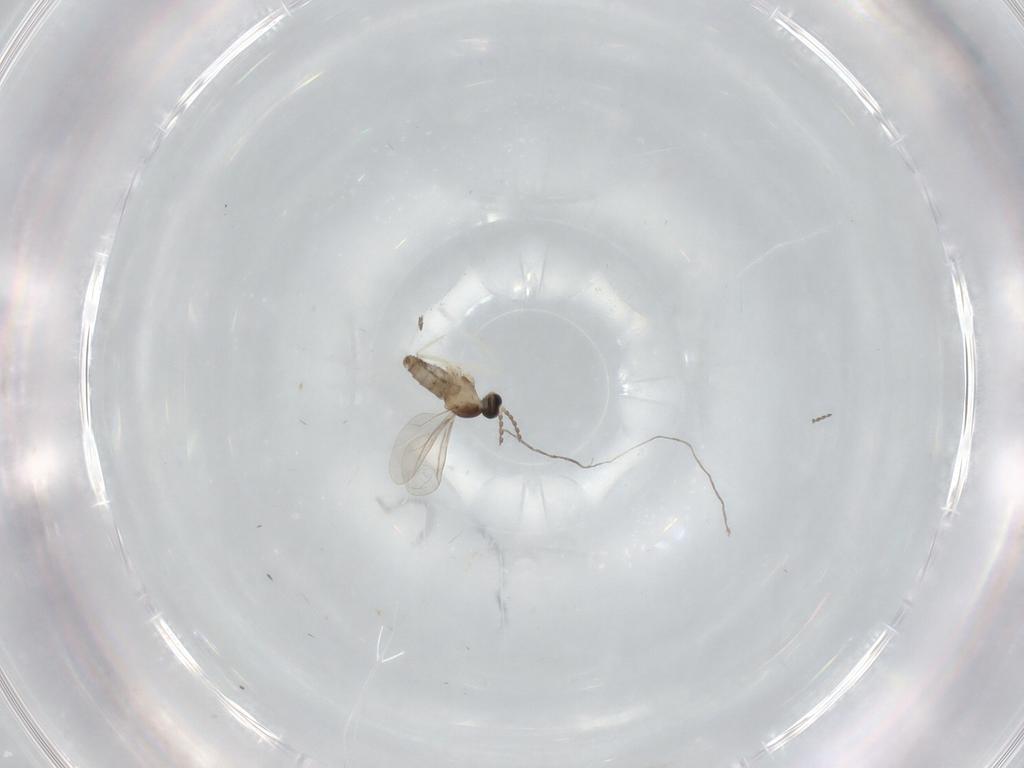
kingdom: Animalia
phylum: Arthropoda
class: Insecta
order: Diptera
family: Cecidomyiidae
